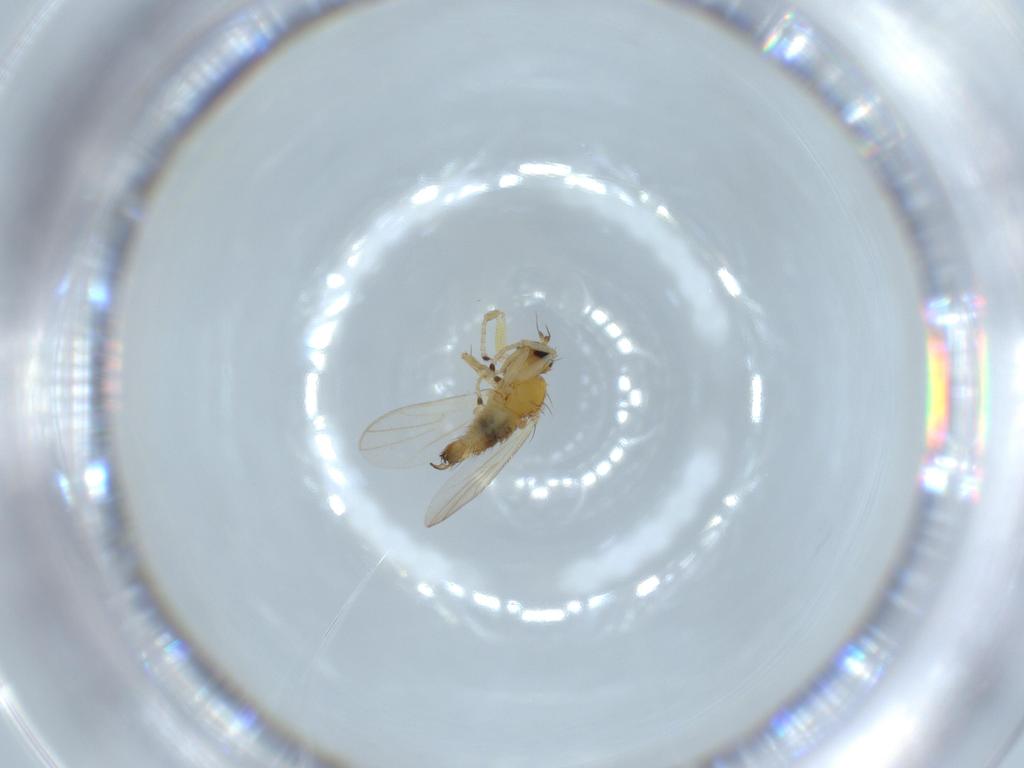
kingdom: Animalia
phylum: Arthropoda
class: Insecta
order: Diptera
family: Hybotidae
